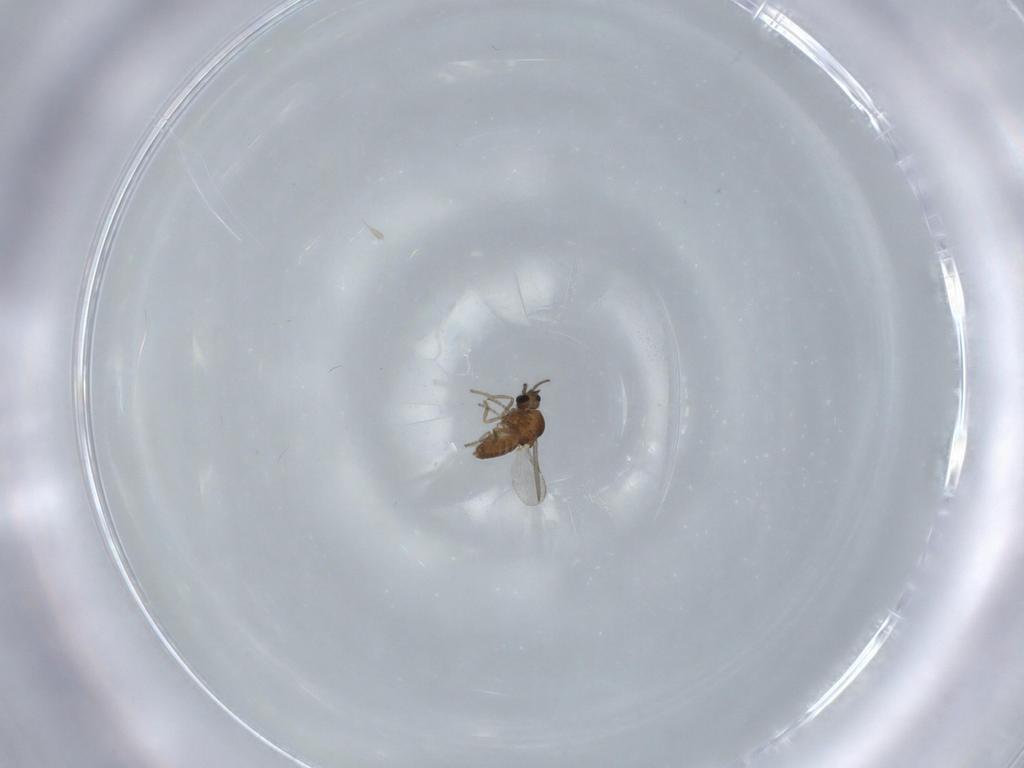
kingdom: Animalia
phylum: Arthropoda
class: Insecta
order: Diptera
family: Ceratopogonidae
